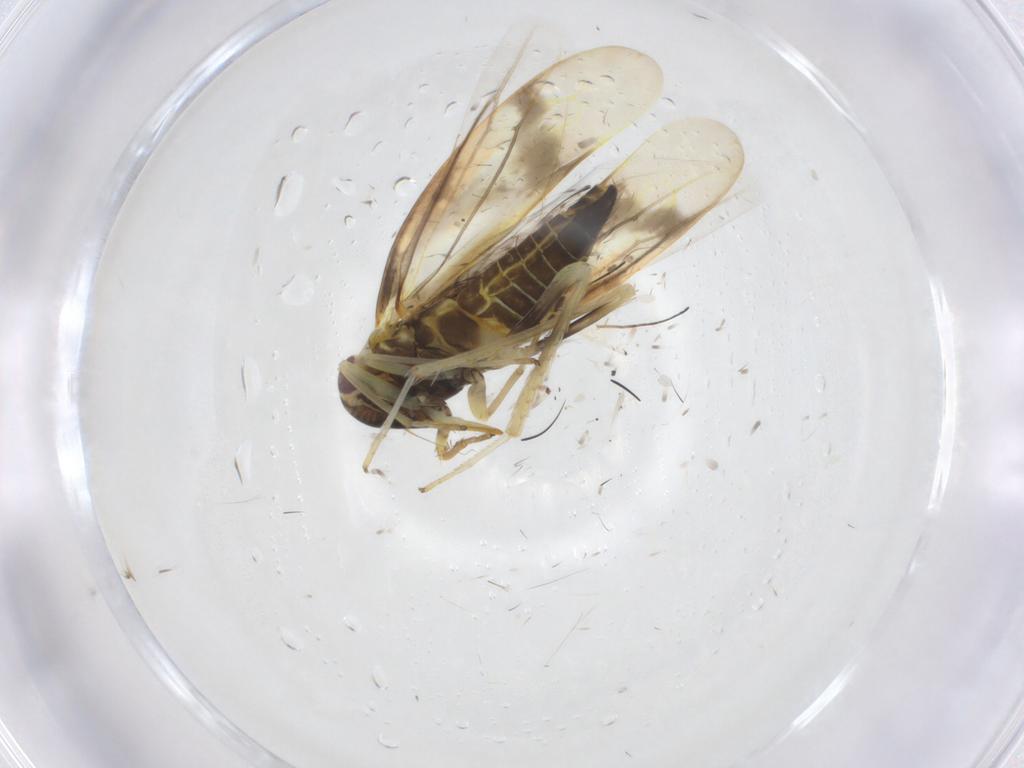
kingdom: Animalia
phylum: Arthropoda
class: Insecta
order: Hemiptera
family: Cicadellidae
